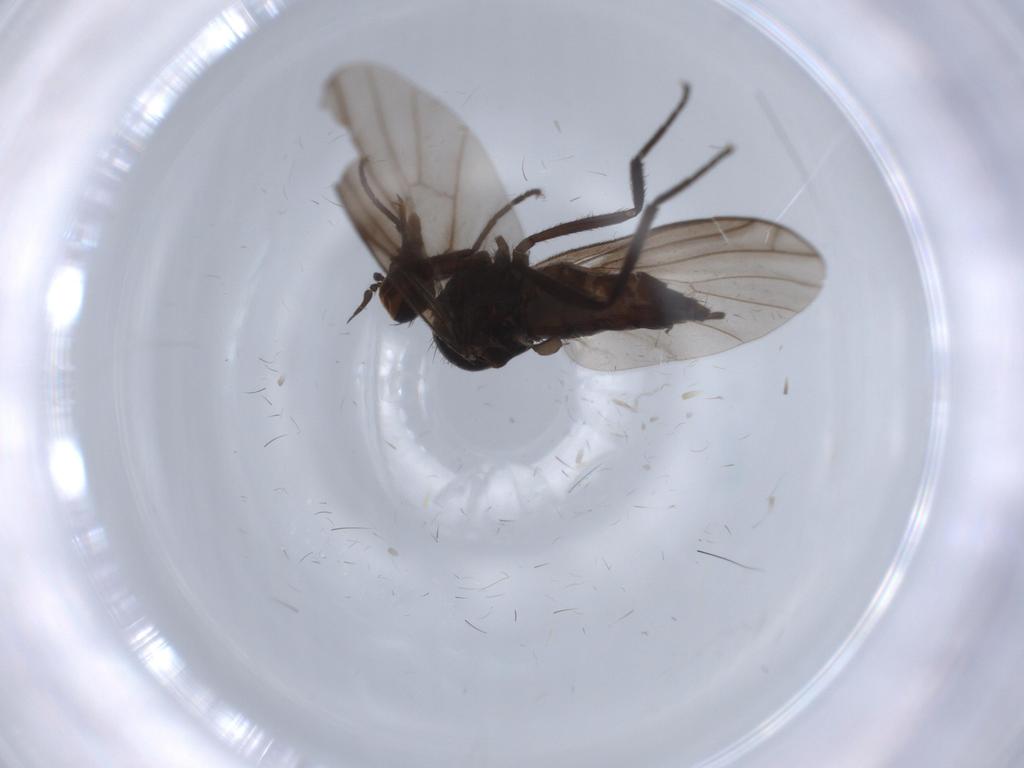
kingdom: Animalia
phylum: Arthropoda
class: Insecta
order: Diptera
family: Empididae
